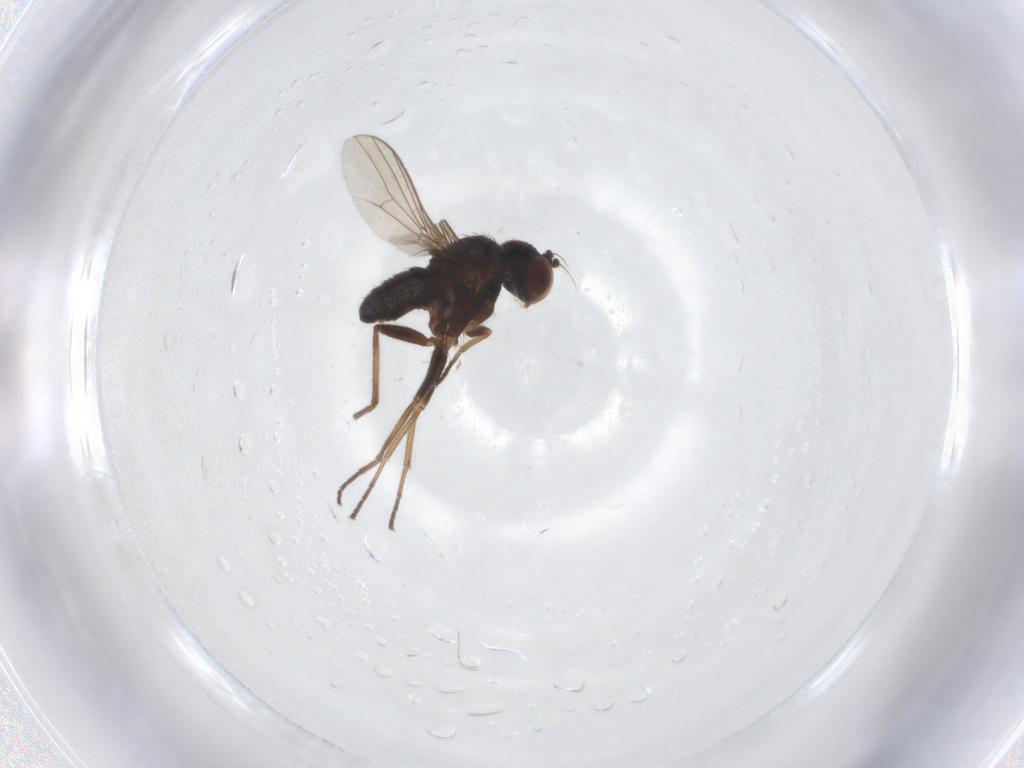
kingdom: Animalia
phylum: Arthropoda
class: Insecta
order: Diptera
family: Dolichopodidae
